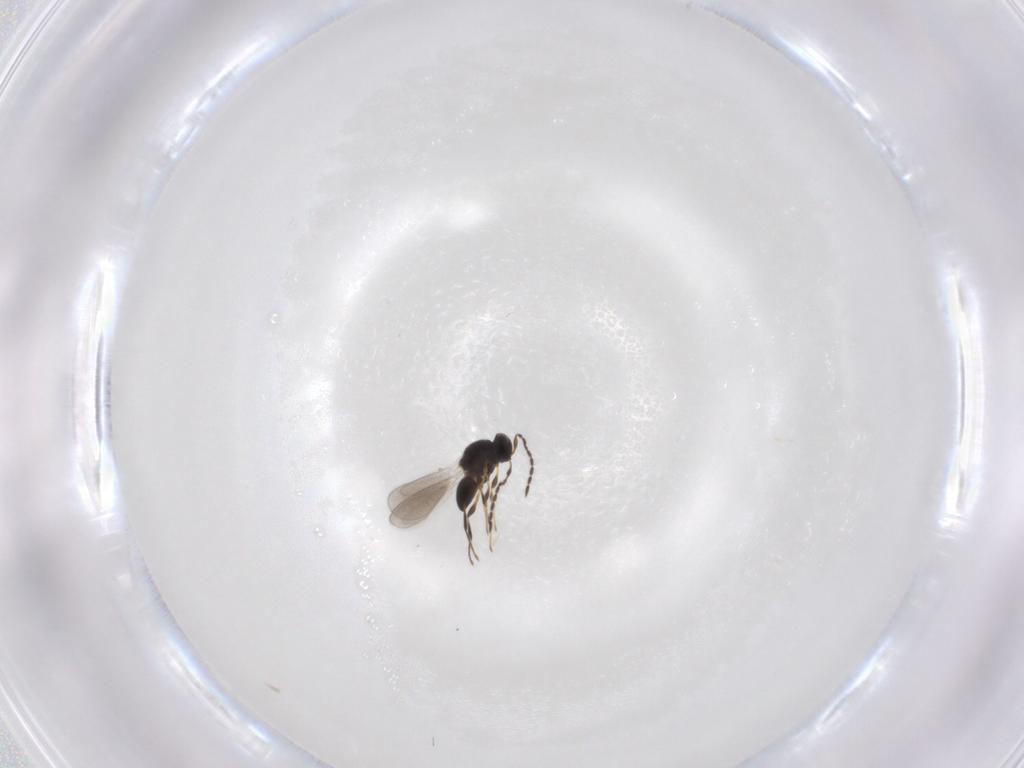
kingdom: Animalia
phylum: Arthropoda
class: Insecta
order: Hymenoptera
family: Platygastridae
